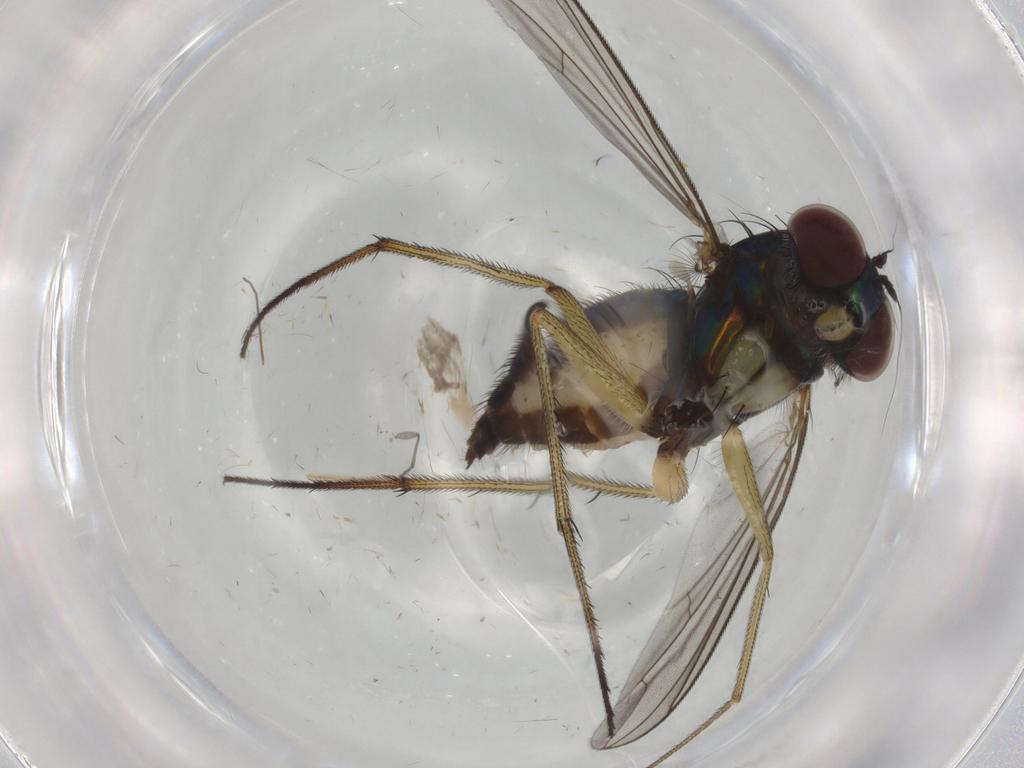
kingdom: Animalia
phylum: Arthropoda
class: Insecta
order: Diptera
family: Dolichopodidae
